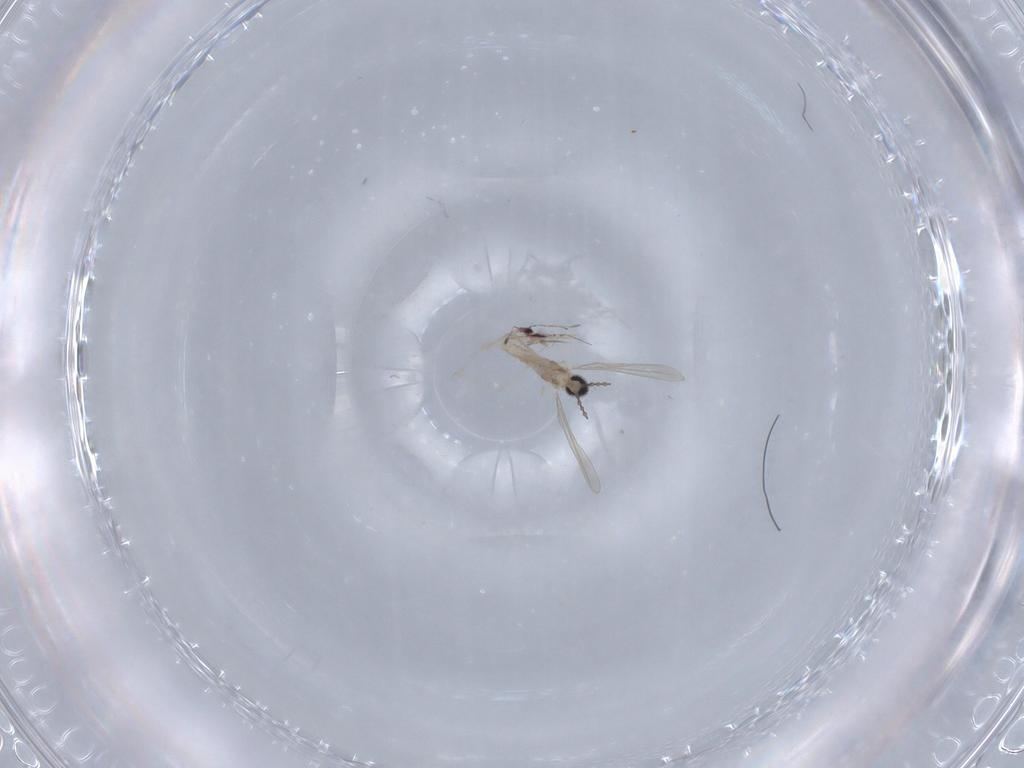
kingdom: Animalia
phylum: Arthropoda
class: Insecta
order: Diptera
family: Cecidomyiidae
